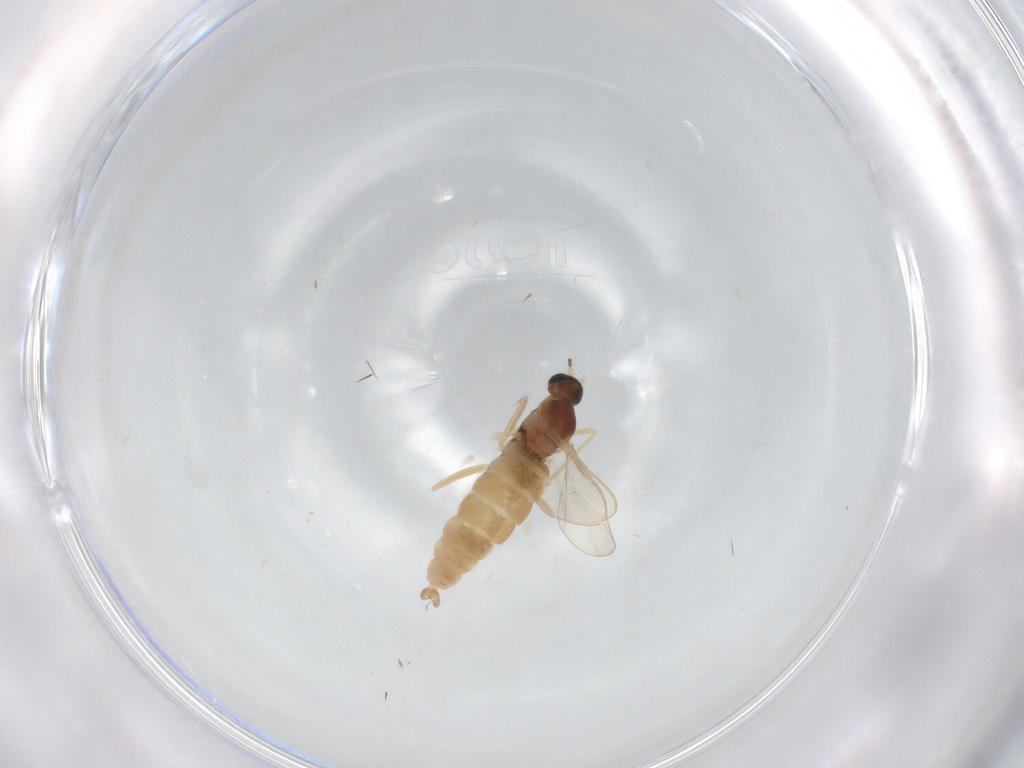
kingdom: Animalia
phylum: Arthropoda
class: Insecta
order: Diptera
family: Cecidomyiidae
